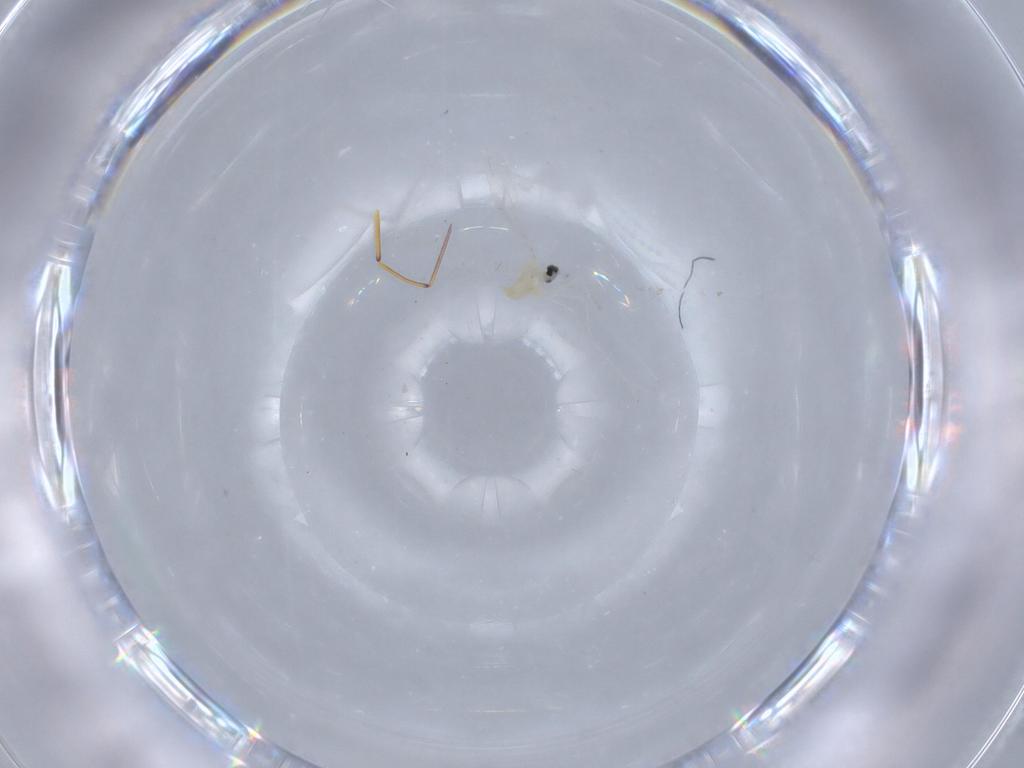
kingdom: Animalia
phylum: Arthropoda
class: Insecta
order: Diptera
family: Cecidomyiidae
